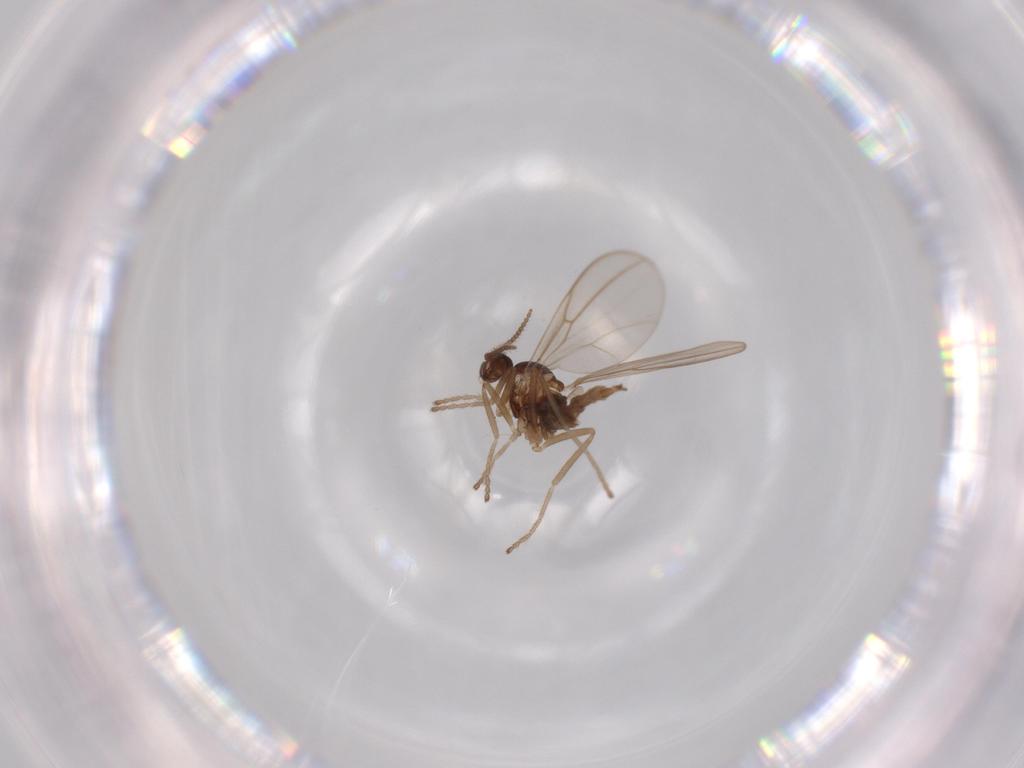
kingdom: Animalia
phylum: Arthropoda
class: Insecta
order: Diptera
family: Cecidomyiidae
